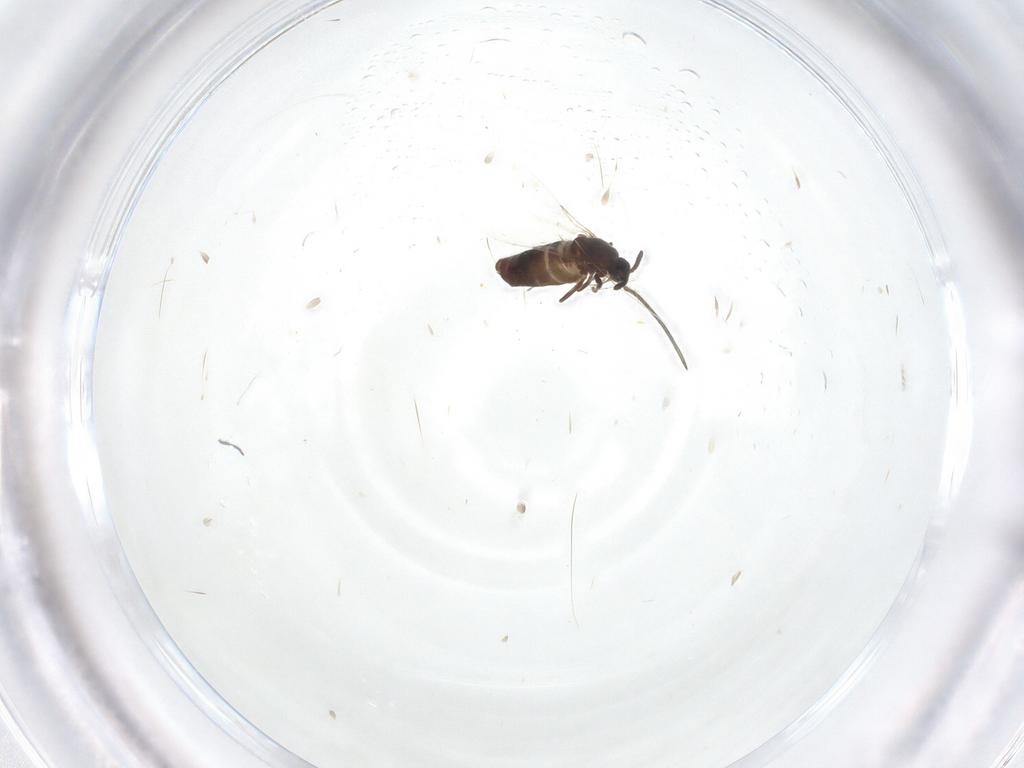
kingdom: Animalia
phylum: Arthropoda
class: Insecta
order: Diptera
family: Scatopsidae
